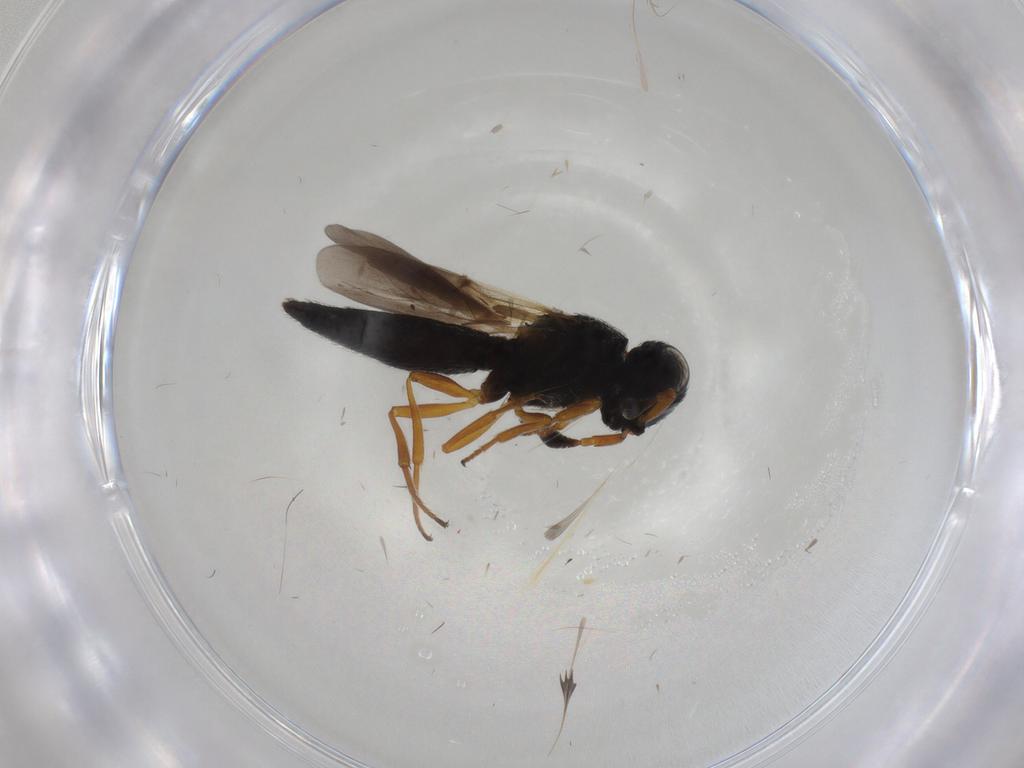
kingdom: Animalia
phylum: Arthropoda
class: Insecta
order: Hymenoptera
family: Scelionidae
